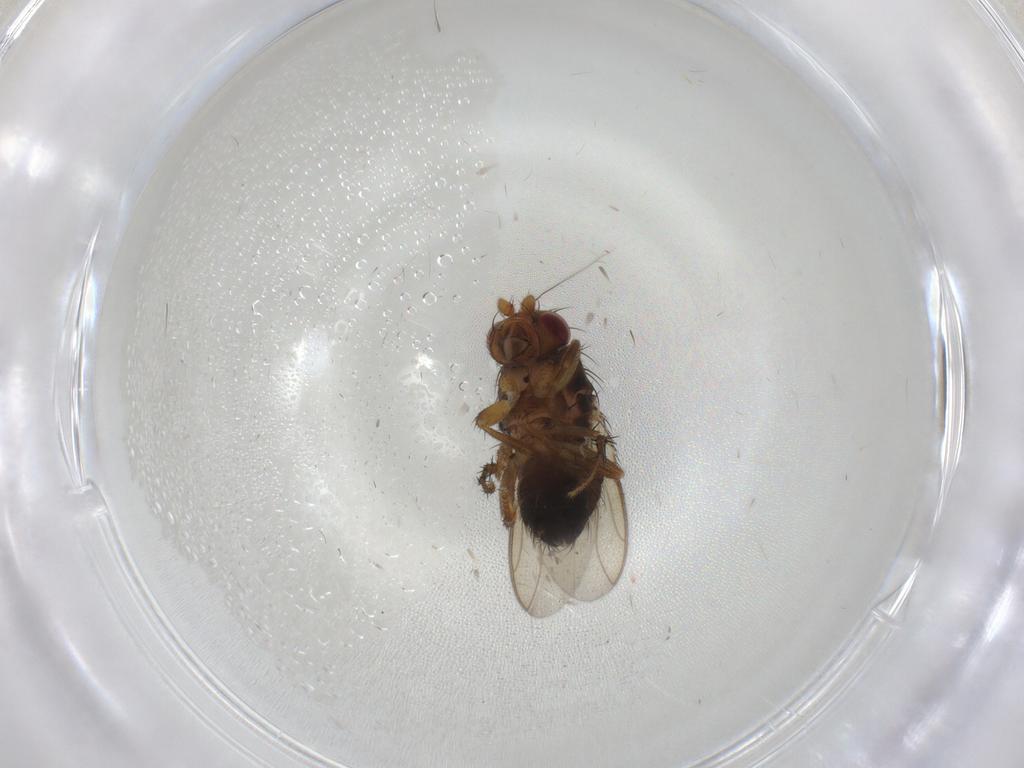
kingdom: Animalia
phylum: Arthropoda
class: Insecta
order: Diptera
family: Sphaeroceridae
